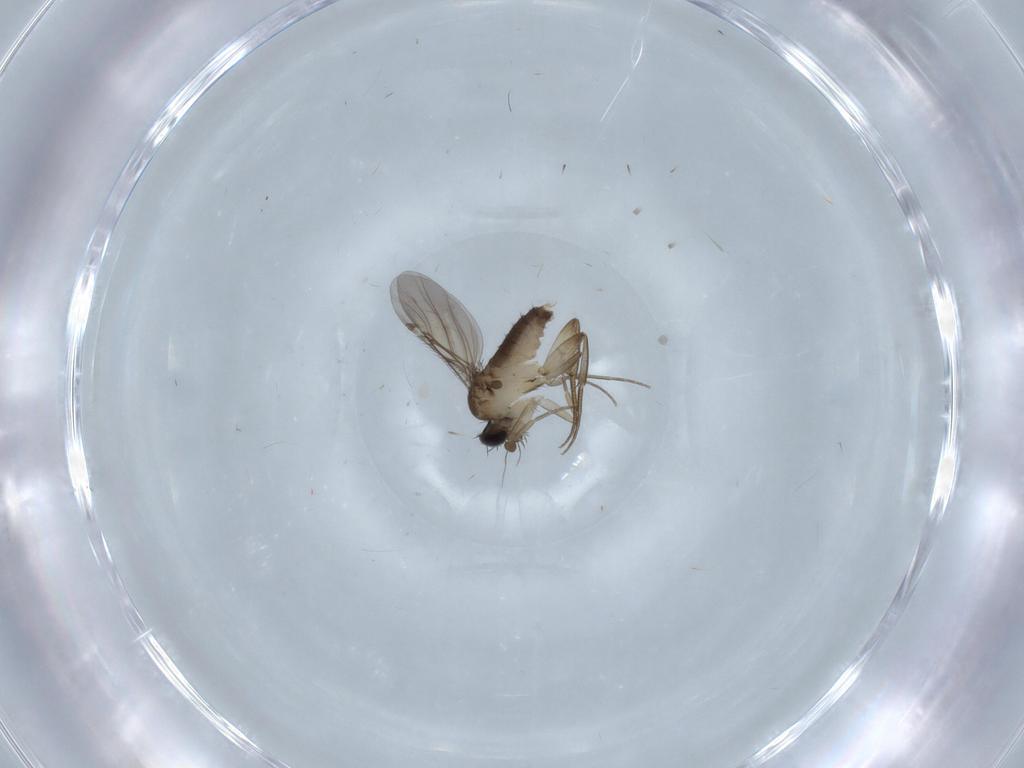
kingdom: Animalia
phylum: Arthropoda
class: Insecta
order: Diptera
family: Phoridae
